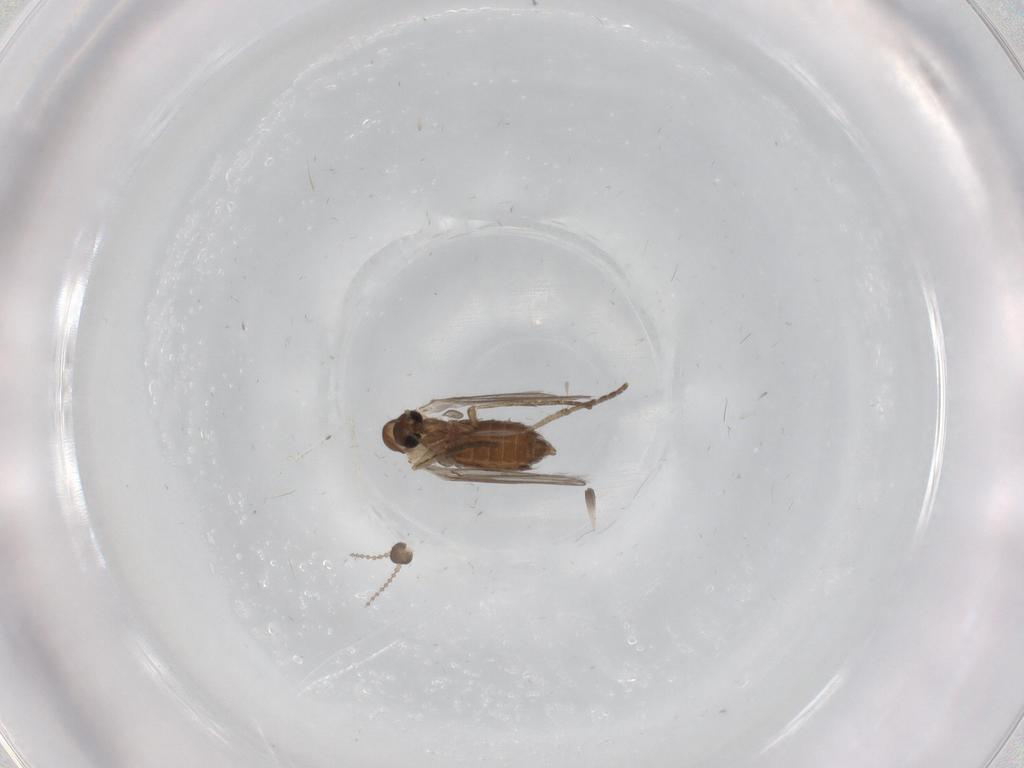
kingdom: Animalia
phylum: Arthropoda
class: Insecta
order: Diptera
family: Cecidomyiidae
